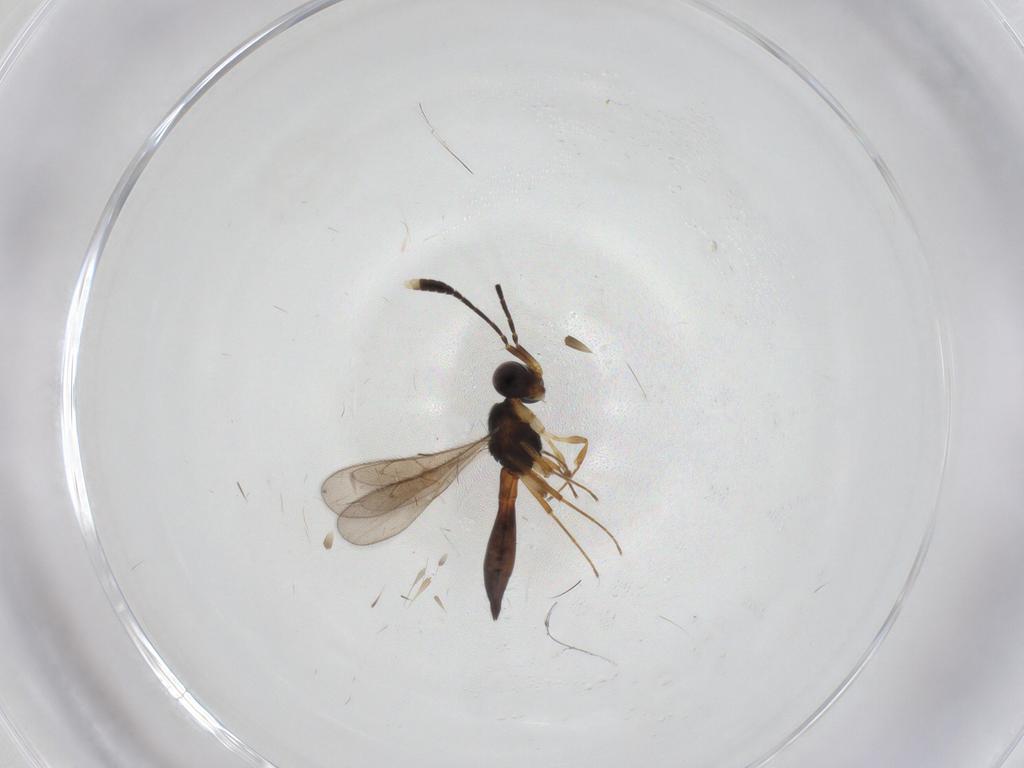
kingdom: Animalia
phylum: Arthropoda
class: Insecta
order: Hymenoptera
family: Scelionidae
